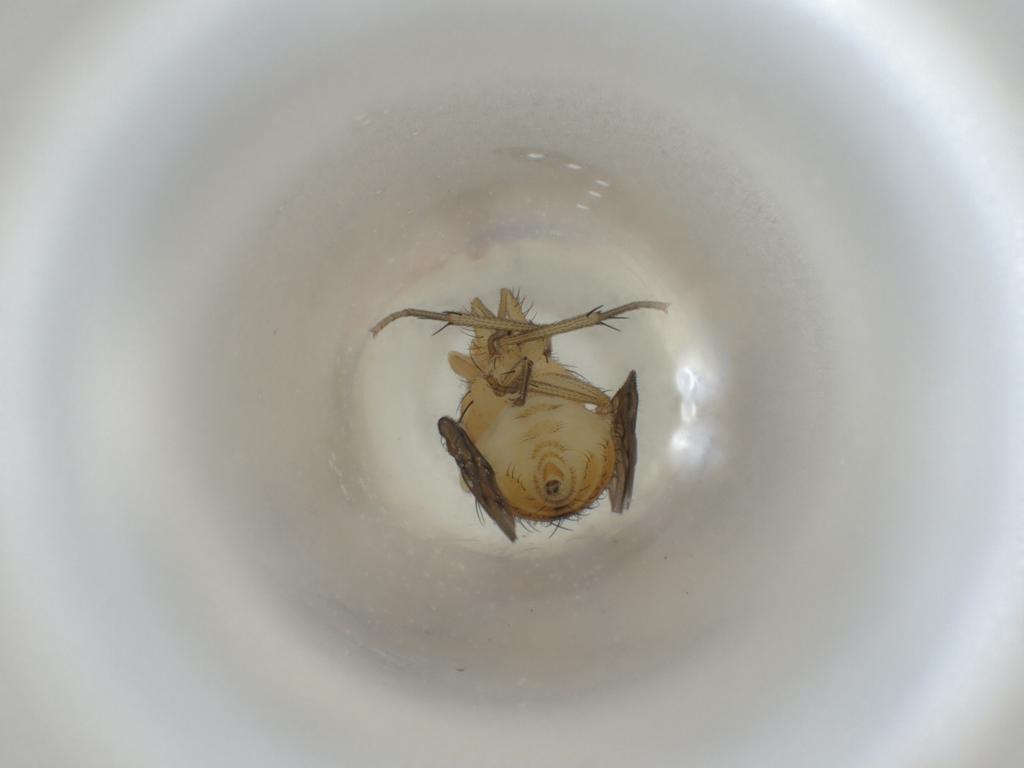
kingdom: Animalia
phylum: Arthropoda
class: Insecta
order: Diptera
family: Lauxaniidae
